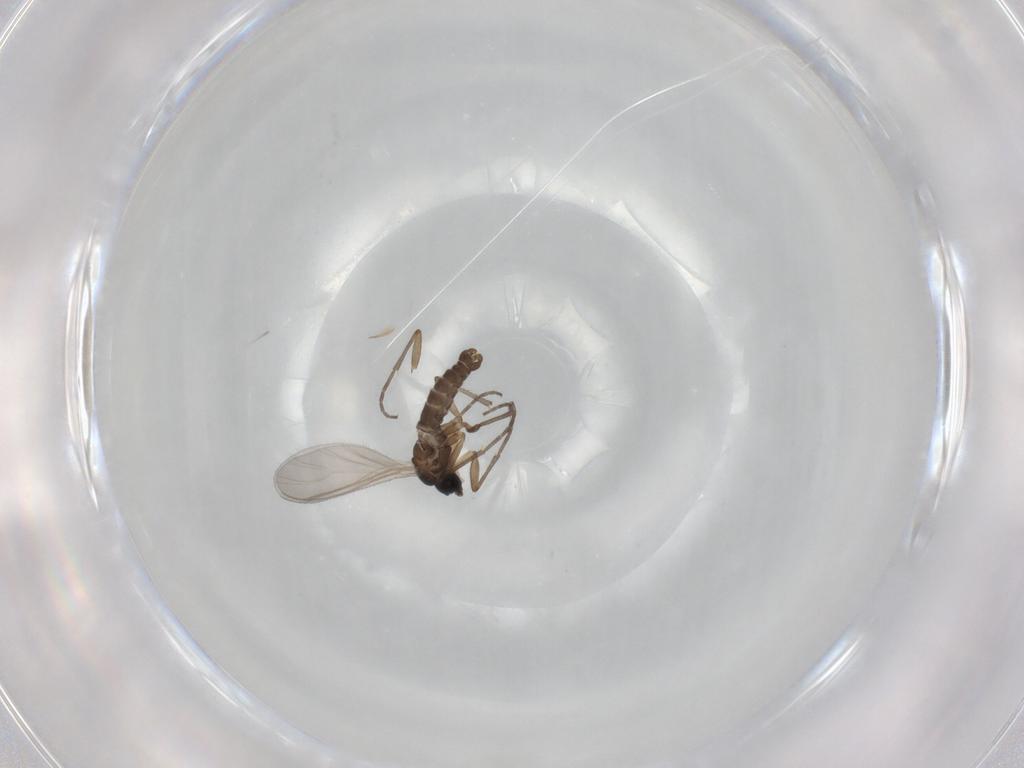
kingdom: Animalia
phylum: Arthropoda
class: Insecta
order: Diptera
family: Sciaridae
